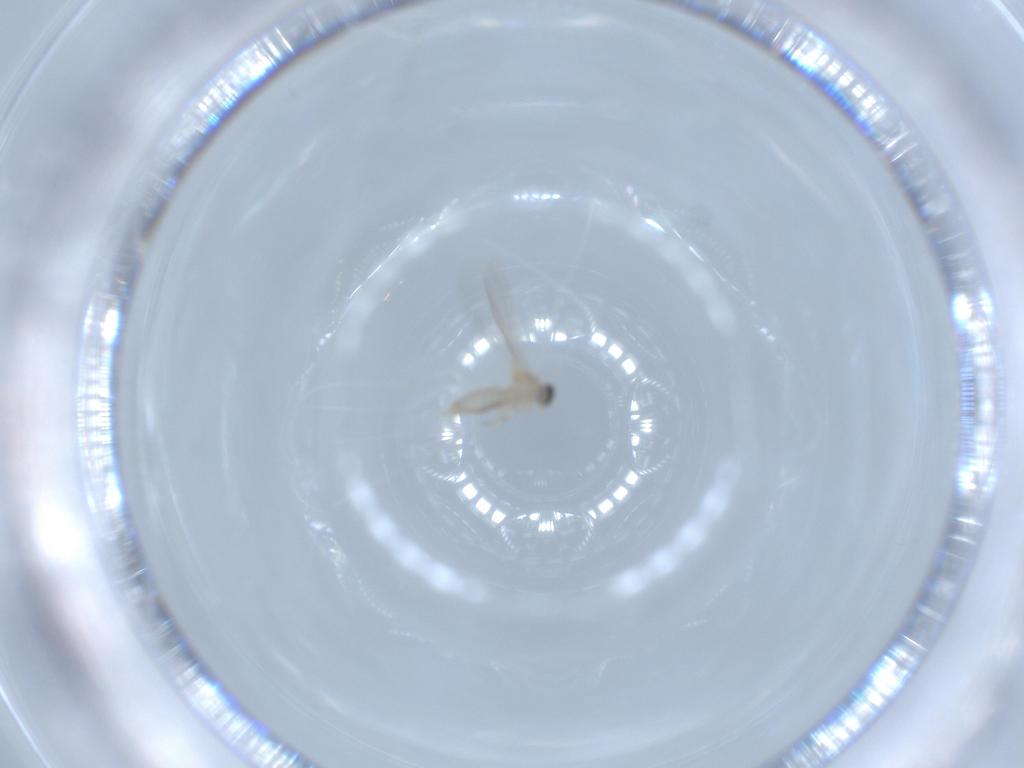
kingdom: Animalia
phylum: Arthropoda
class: Insecta
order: Diptera
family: Cecidomyiidae
